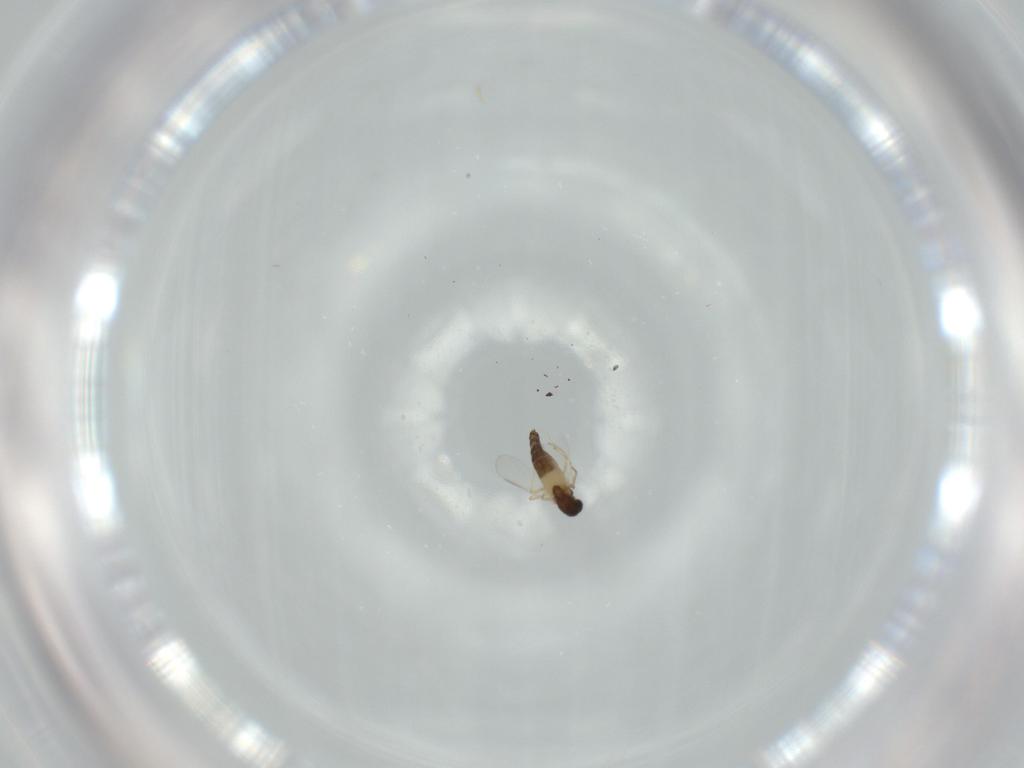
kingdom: Animalia
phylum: Arthropoda
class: Insecta
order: Diptera
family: Chironomidae
